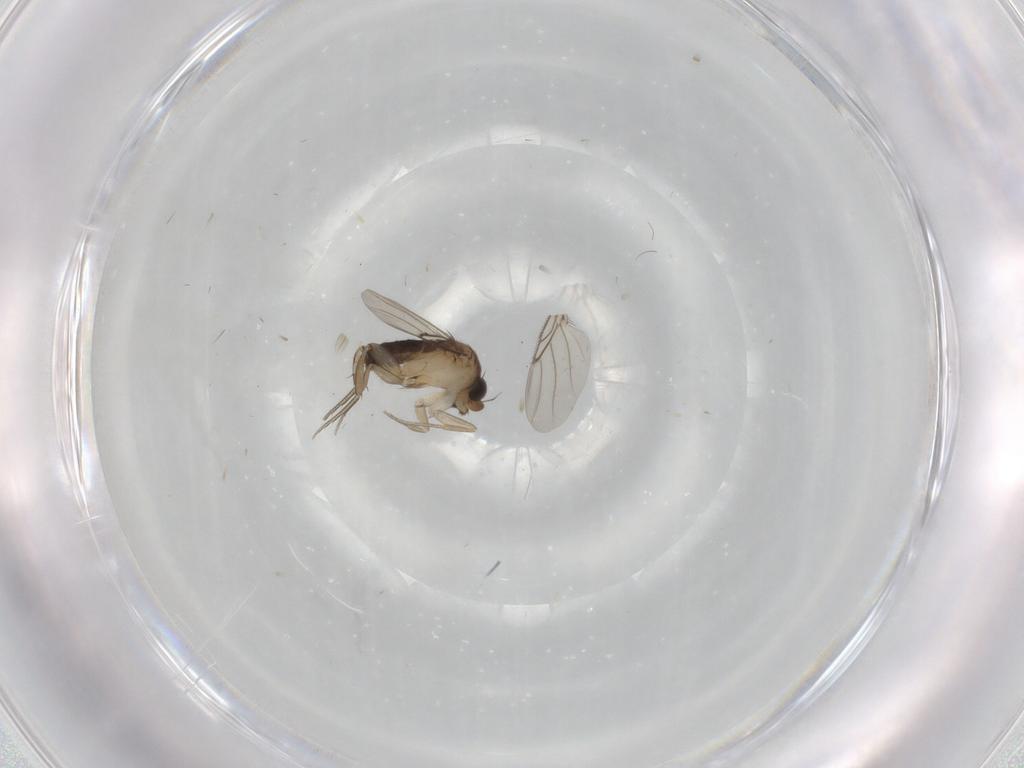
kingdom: Animalia
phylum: Arthropoda
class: Insecta
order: Diptera
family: Phoridae
